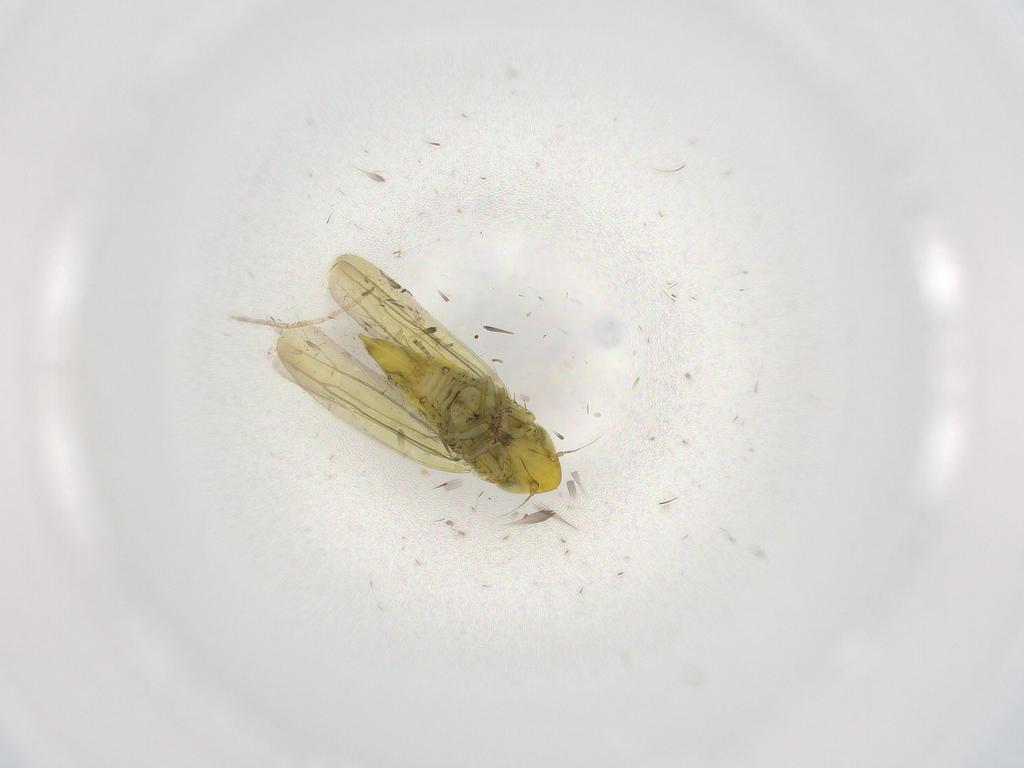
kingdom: Animalia
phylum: Arthropoda
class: Insecta
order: Hemiptera
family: Cicadellidae
